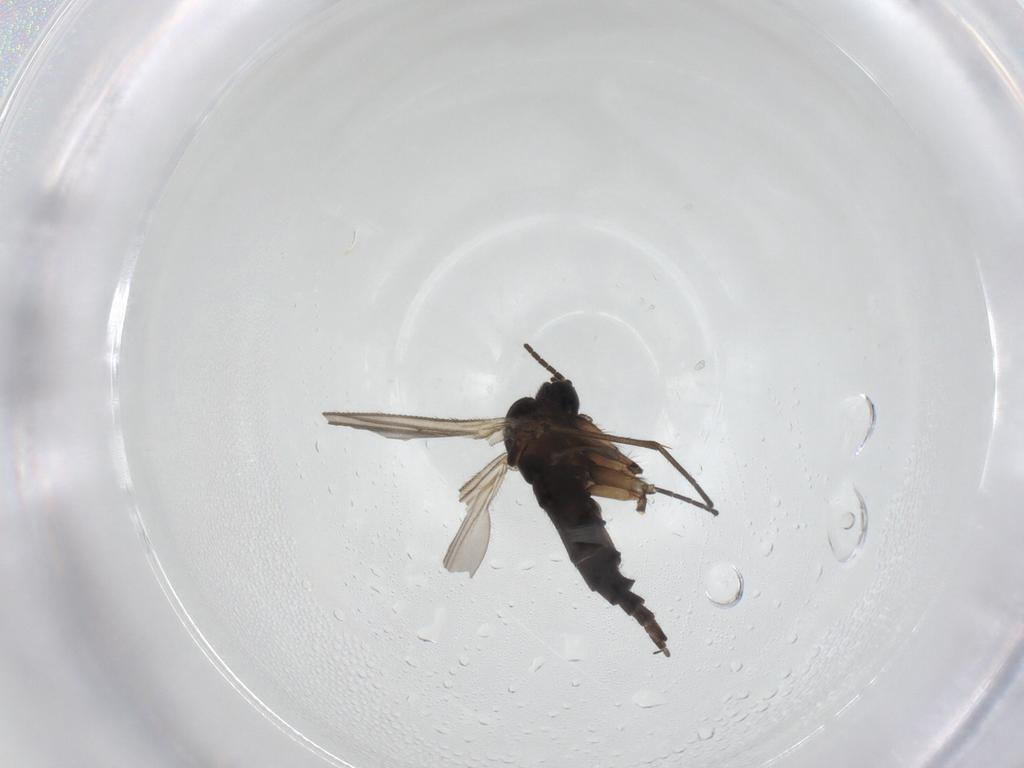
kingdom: Animalia
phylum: Arthropoda
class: Insecta
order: Diptera
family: Sciaridae
